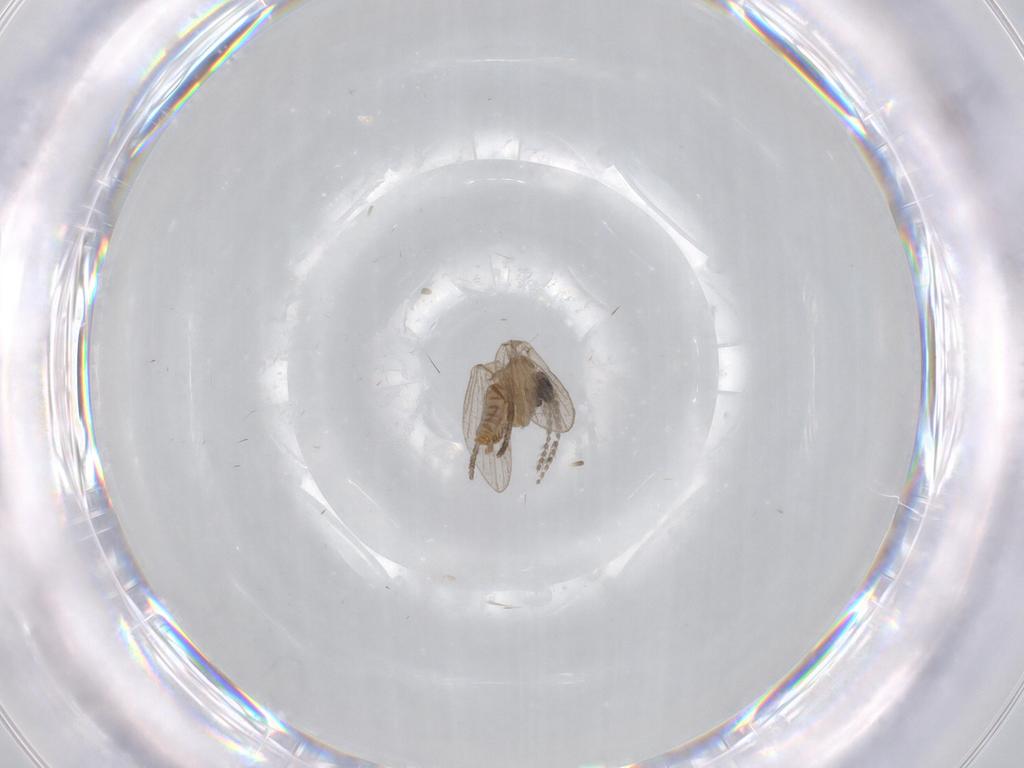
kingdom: Animalia
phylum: Arthropoda
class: Insecta
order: Diptera
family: Psychodidae
